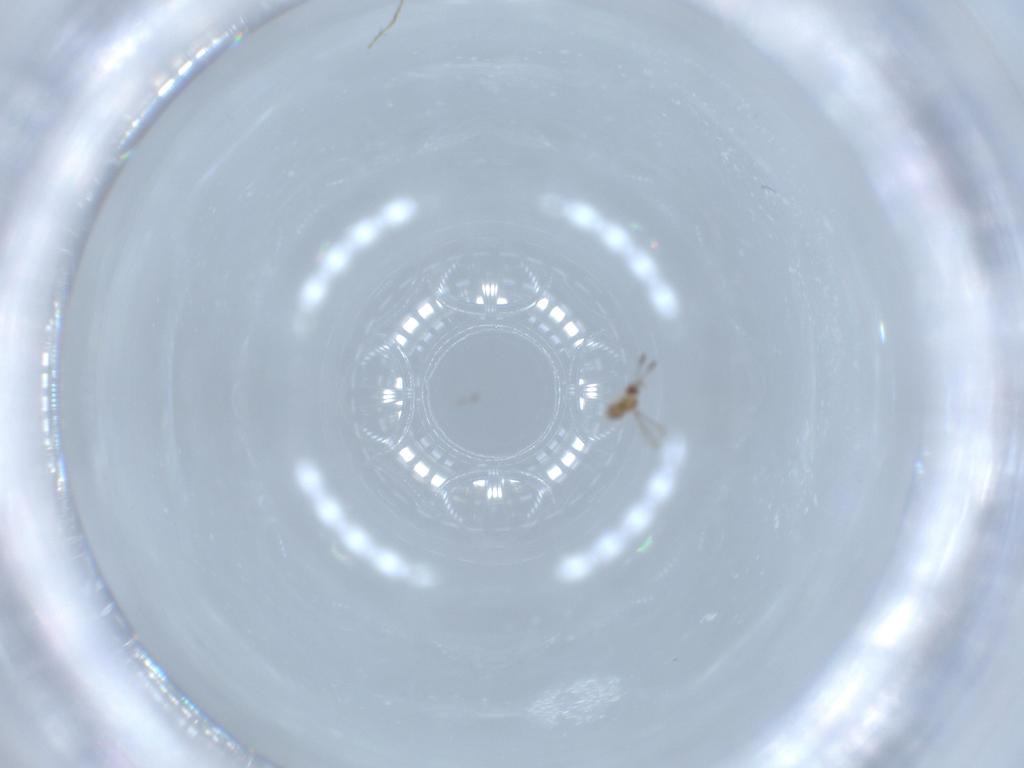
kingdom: Animalia
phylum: Arthropoda
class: Insecta
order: Hymenoptera
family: Mymaridae
